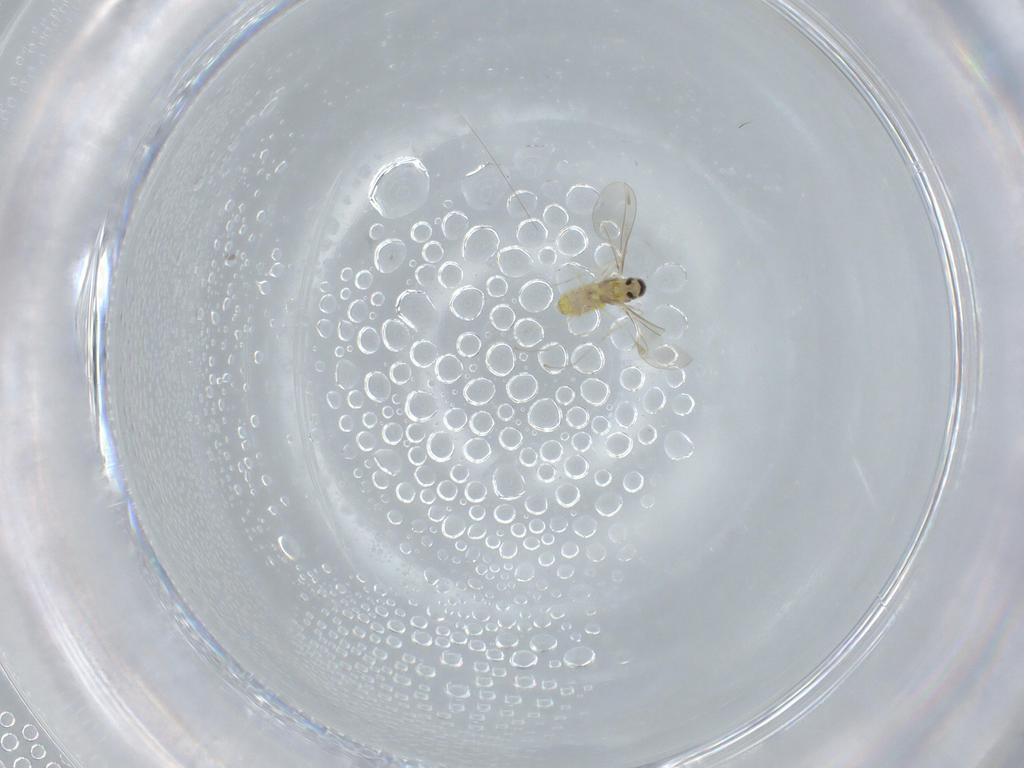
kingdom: Animalia
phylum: Arthropoda
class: Insecta
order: Diptera
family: Cecidomyiidae
